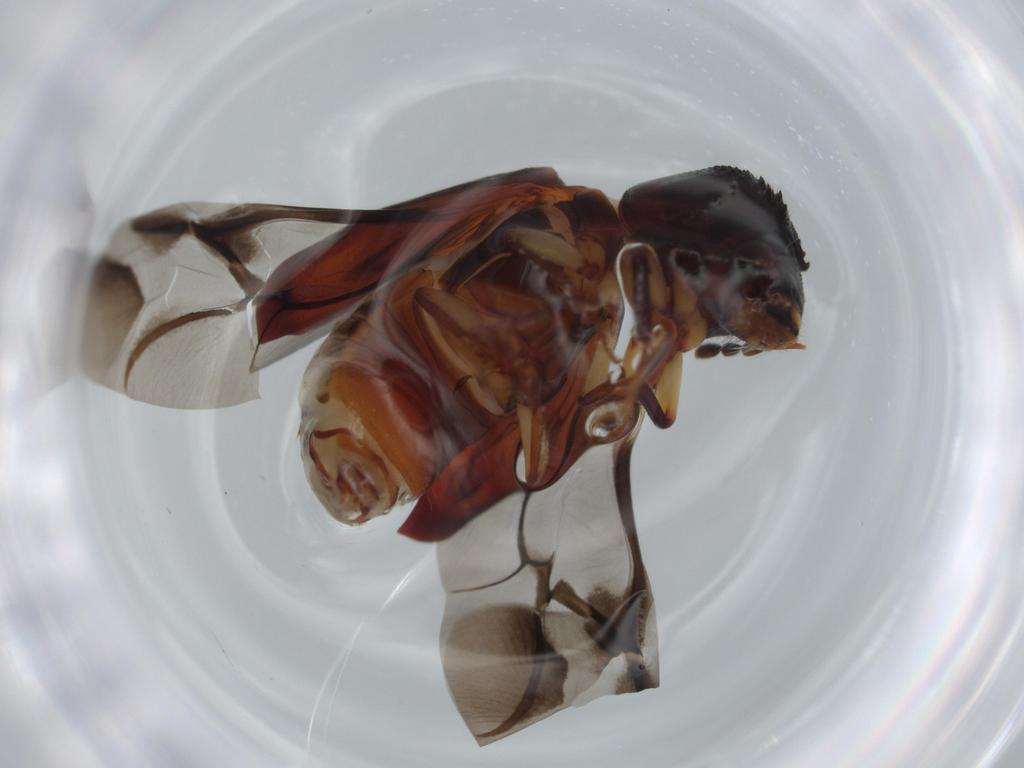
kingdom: Animalia
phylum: Arthropoda
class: Insecta
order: Coleoptera
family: Bostrichidae
